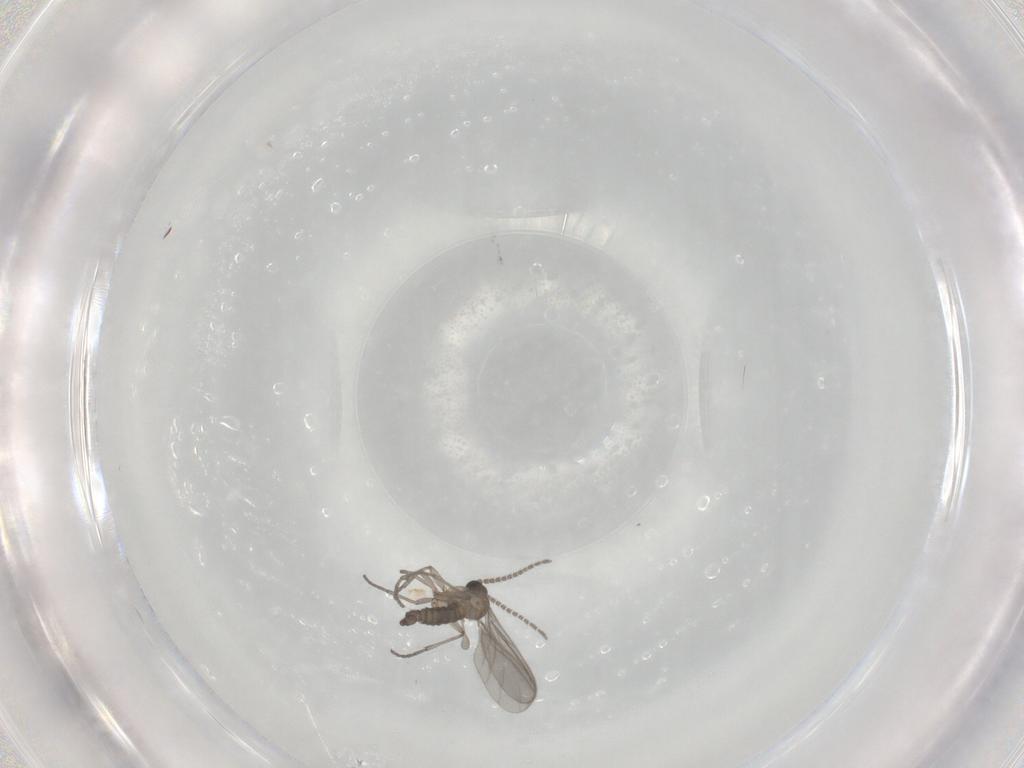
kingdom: Animalia
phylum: Arthropoda
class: Insecta
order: Diptera
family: Sciaridae
